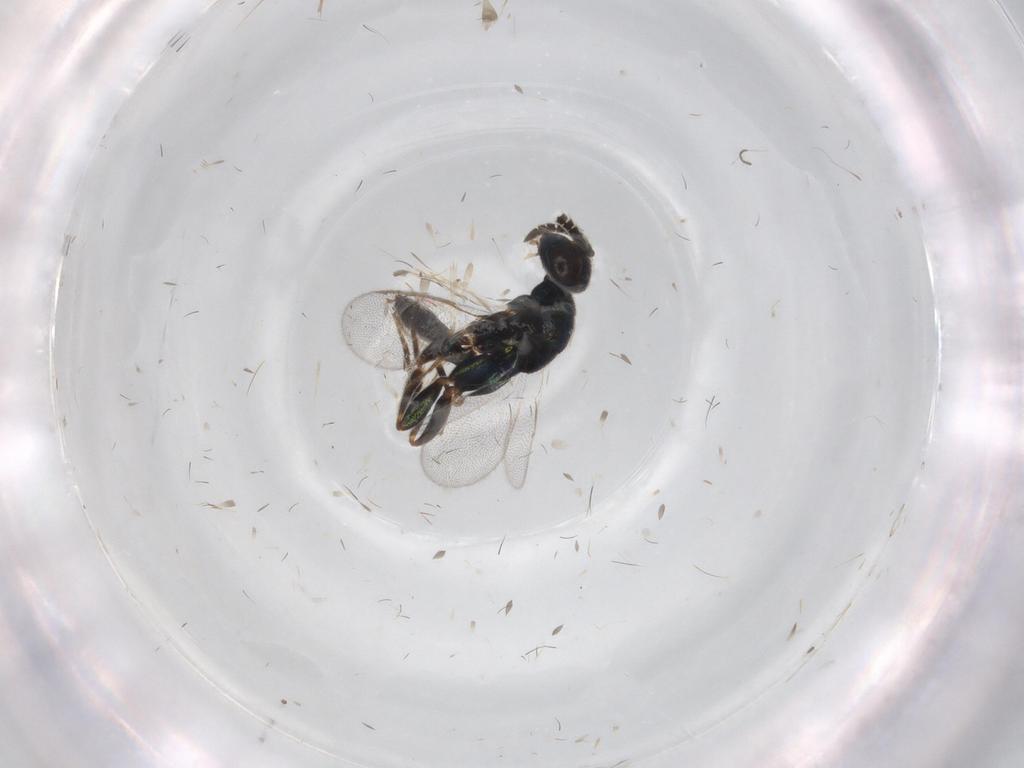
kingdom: Animalia
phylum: Arthropoda
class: Insecta
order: Hymenoptera
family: Cleonyminae
